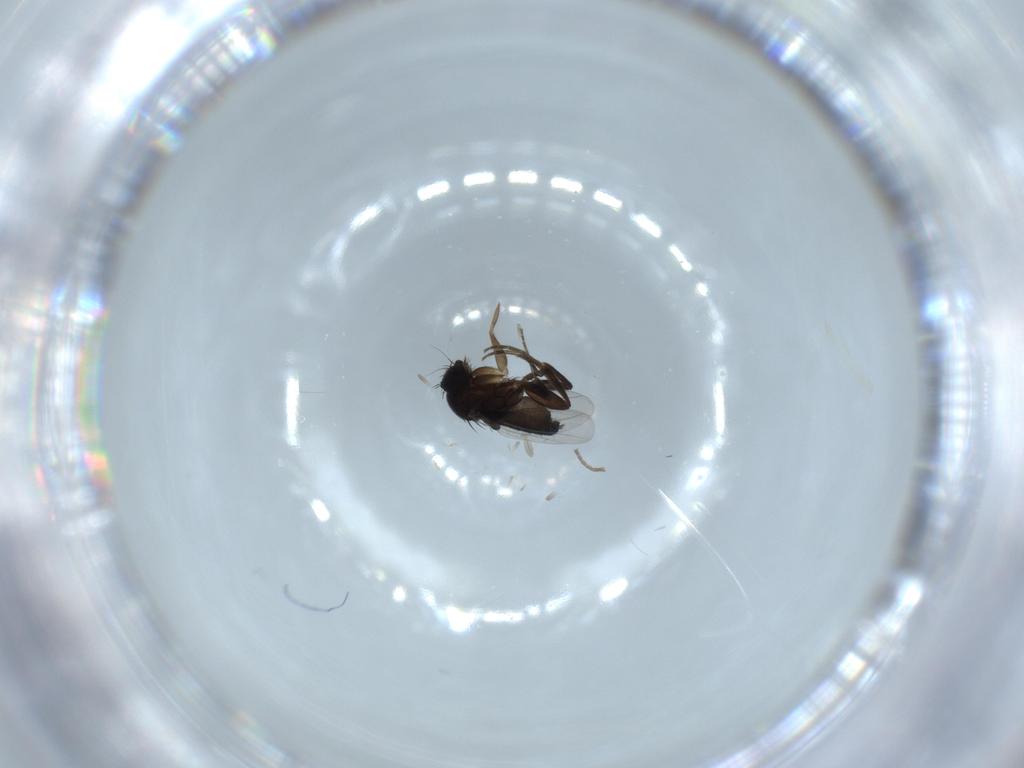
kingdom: Animalia
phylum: Arthropoda
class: Insecta
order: Diptera
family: Phoridae
